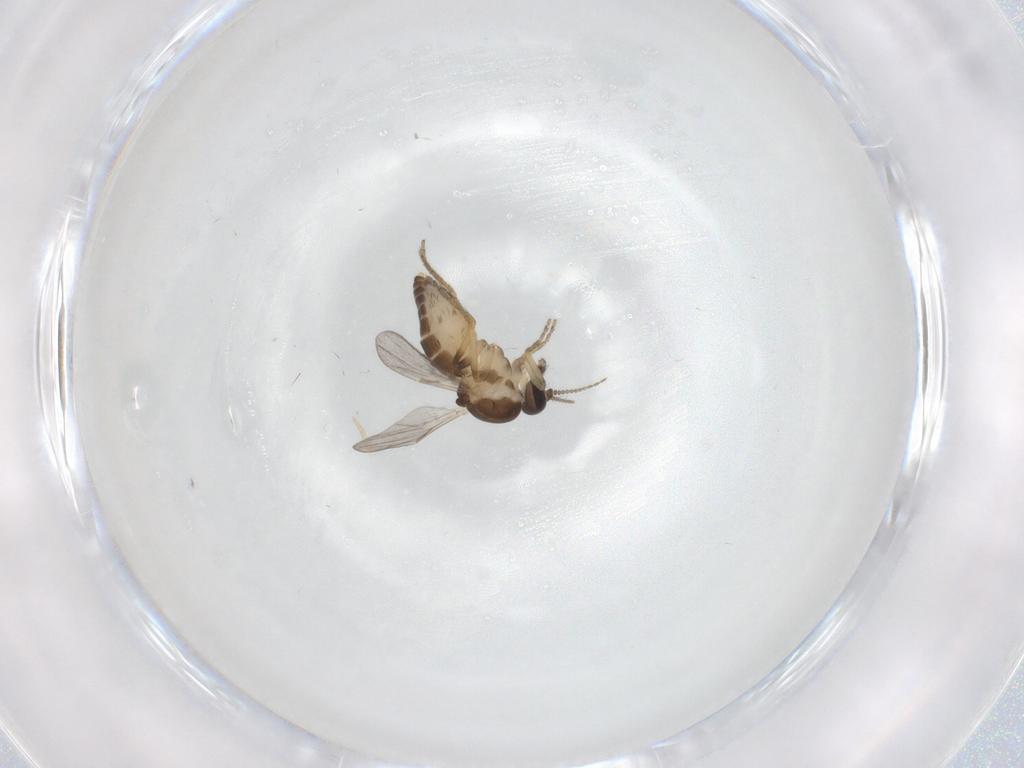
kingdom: Animalia
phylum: Arthropoda
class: Insecta
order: Diptera
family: Ceratopogonidae
